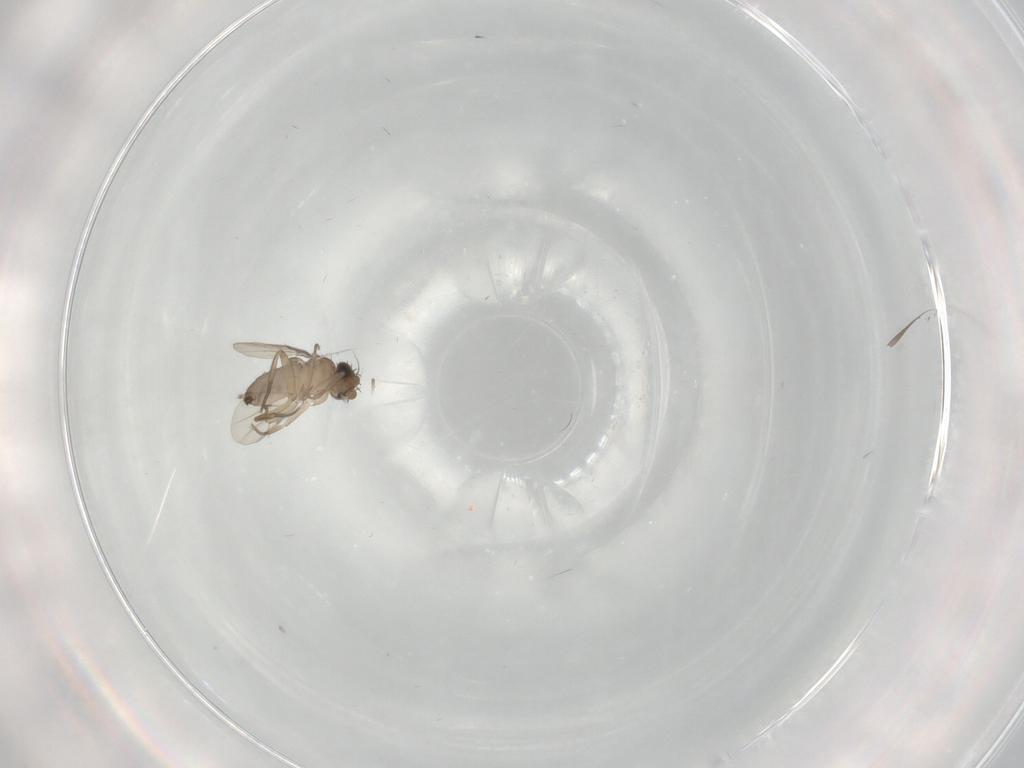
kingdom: Animalia
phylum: Arthropoda
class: Insecta
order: Diptera
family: Phoridae
